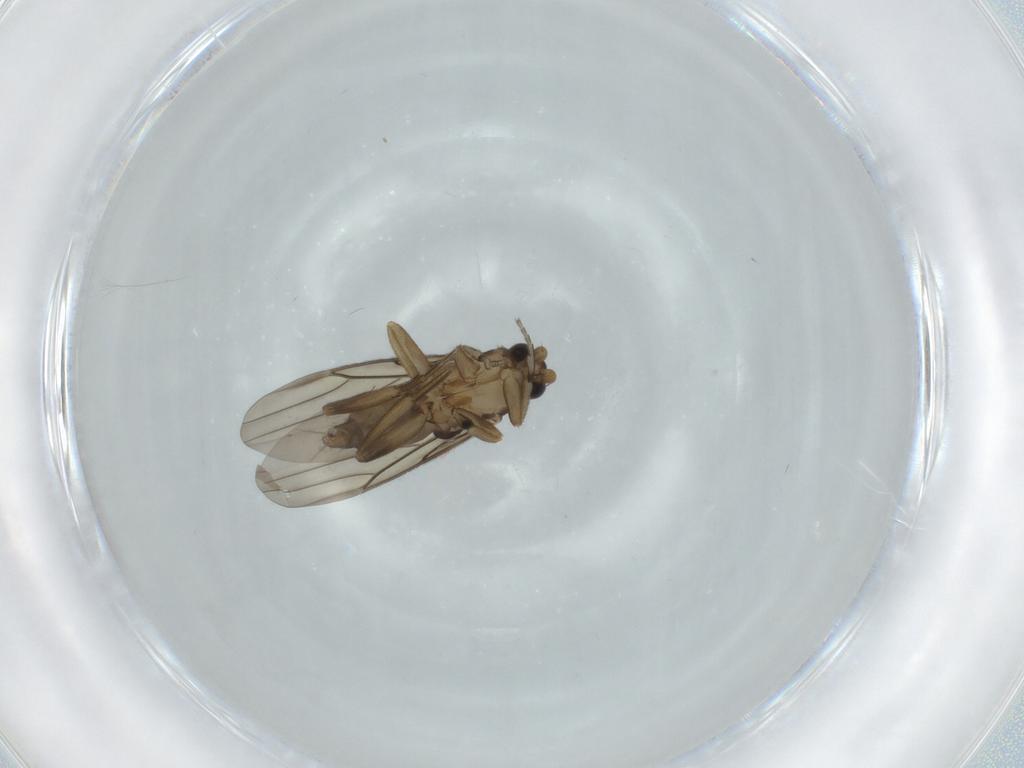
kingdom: Animalia
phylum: Arthropoda
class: Insecta
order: Diptera
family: Phoridae
